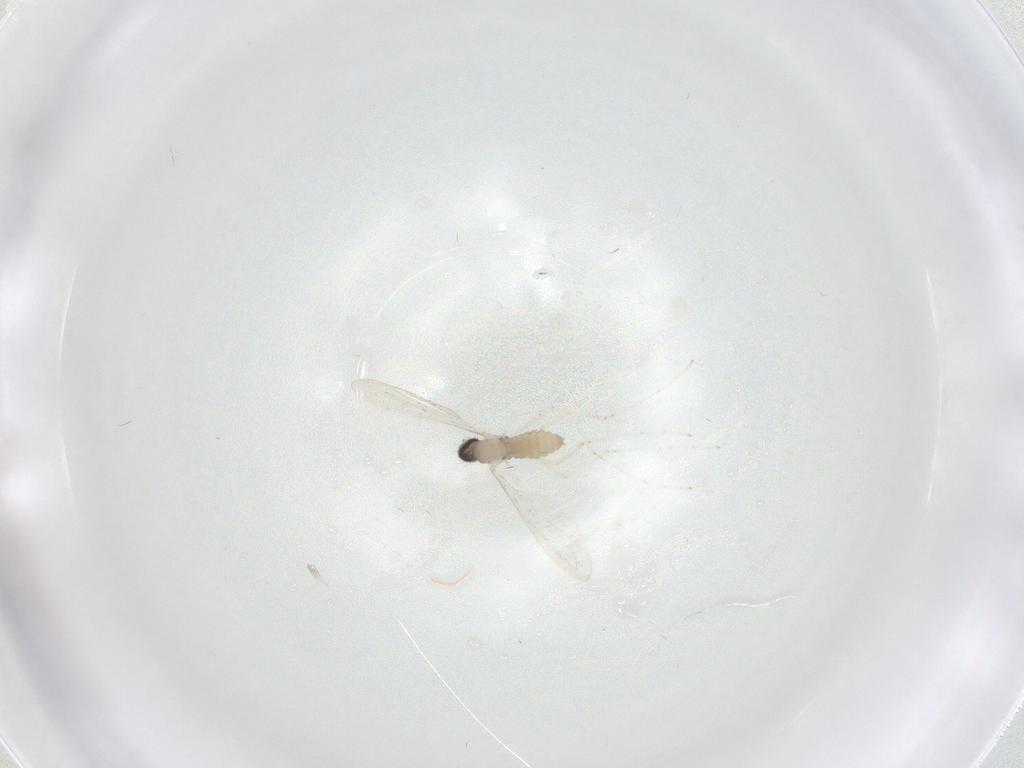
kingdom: Animalia
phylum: Arthropoda
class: Insecta
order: Diptera
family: Cecidomyiidae
